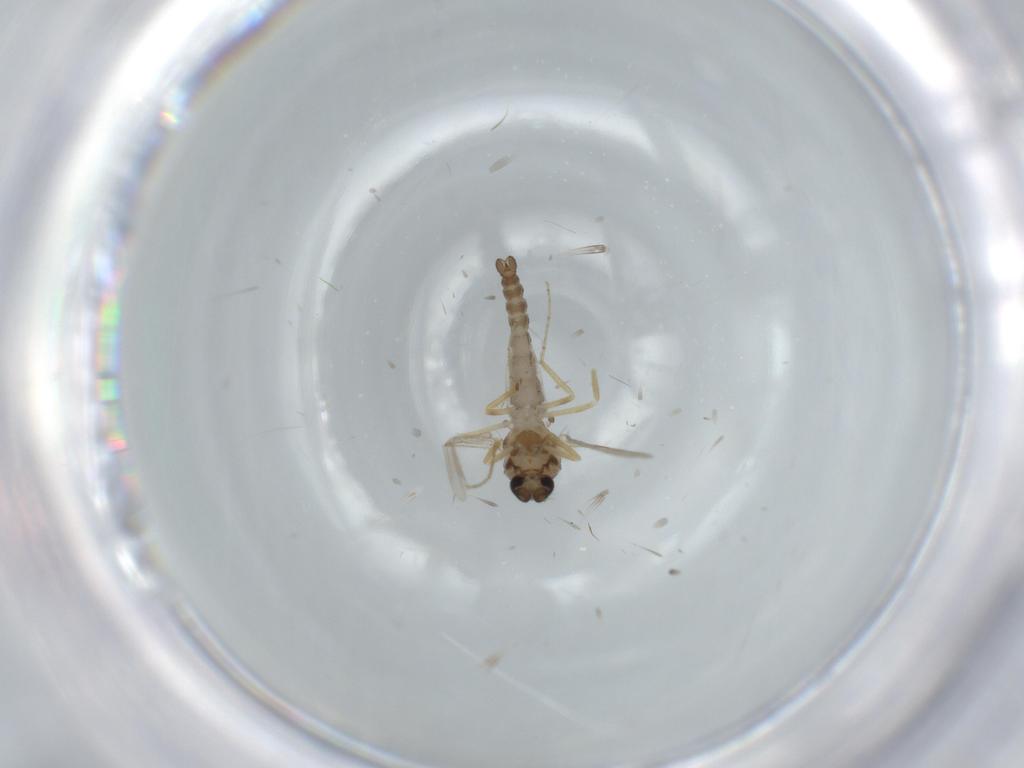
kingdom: Animalia
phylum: Arthropoda
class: Insecta
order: Diptera
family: Ceratopogonidae
